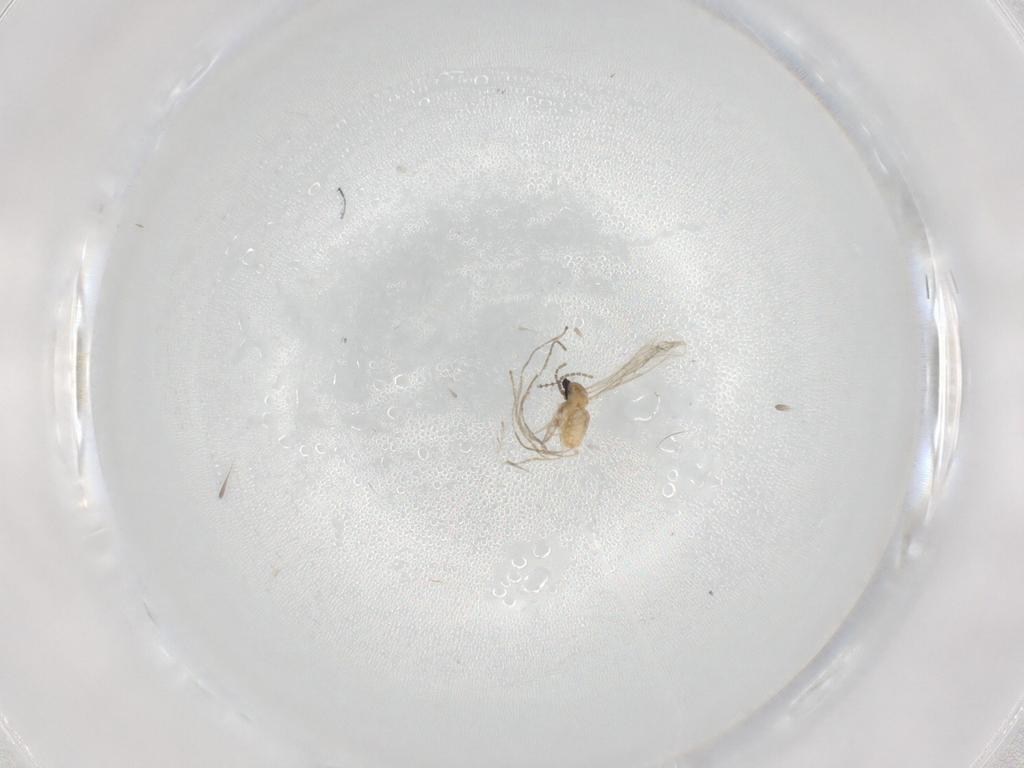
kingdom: Animalia
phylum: Arthropoda
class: Insecta
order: Diptera
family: Cecidomyiidae
